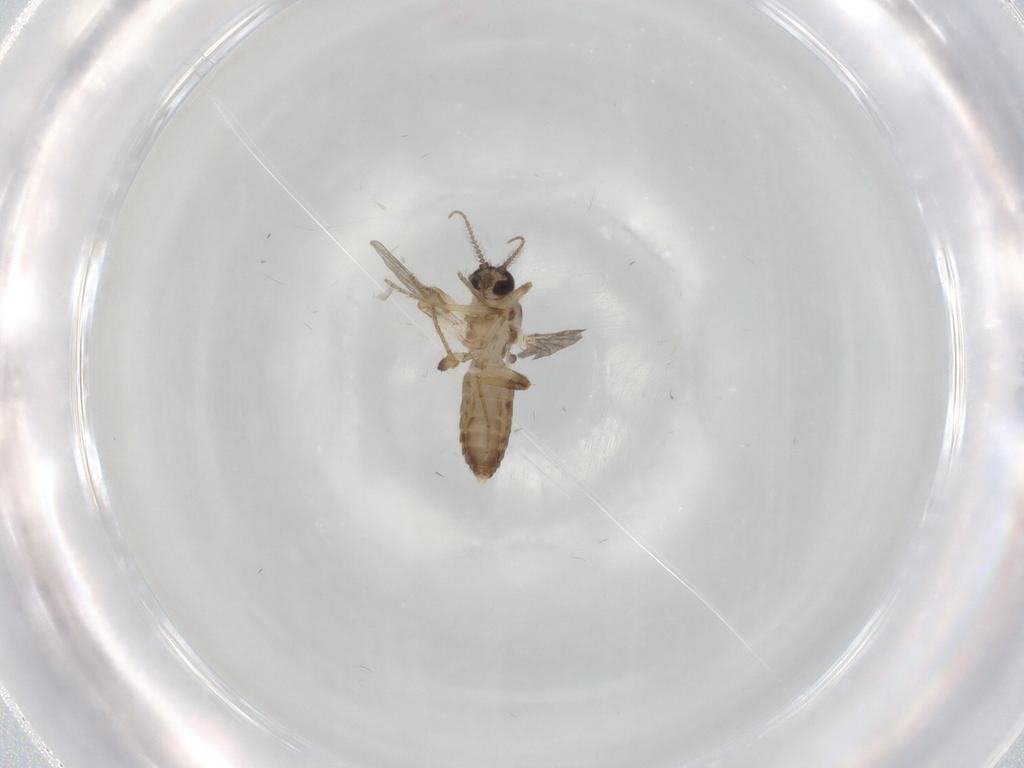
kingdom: Animalia
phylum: Arthropoda
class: Insecta
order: Diptera
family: Ceratopogonidae
